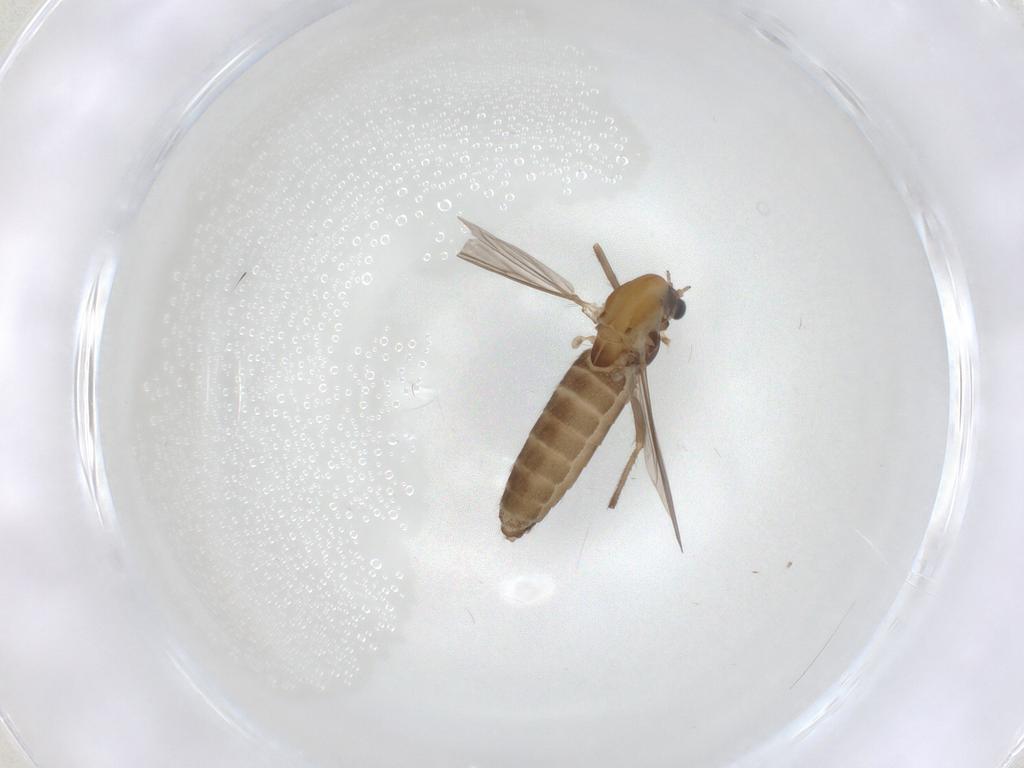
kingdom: Animalia
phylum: Arthropoda
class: Insecta
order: Diptera
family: Chironomidae
